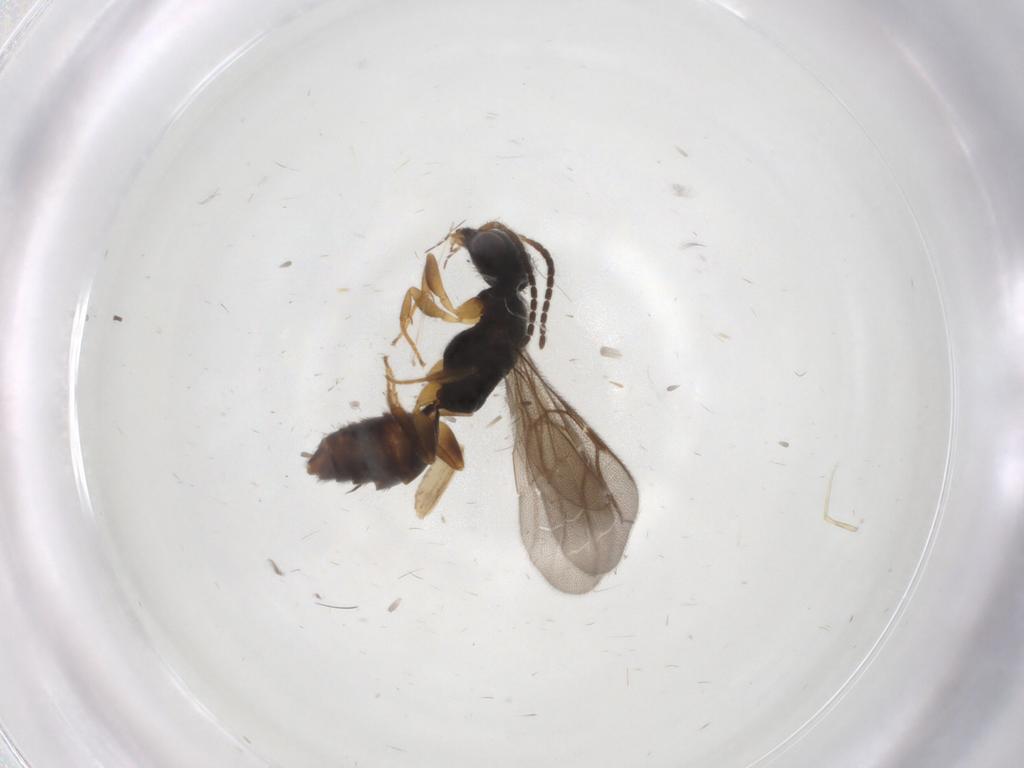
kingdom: Animalia
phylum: Arthropoda
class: Insecta
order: Hymenoptera
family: Bethylidae
